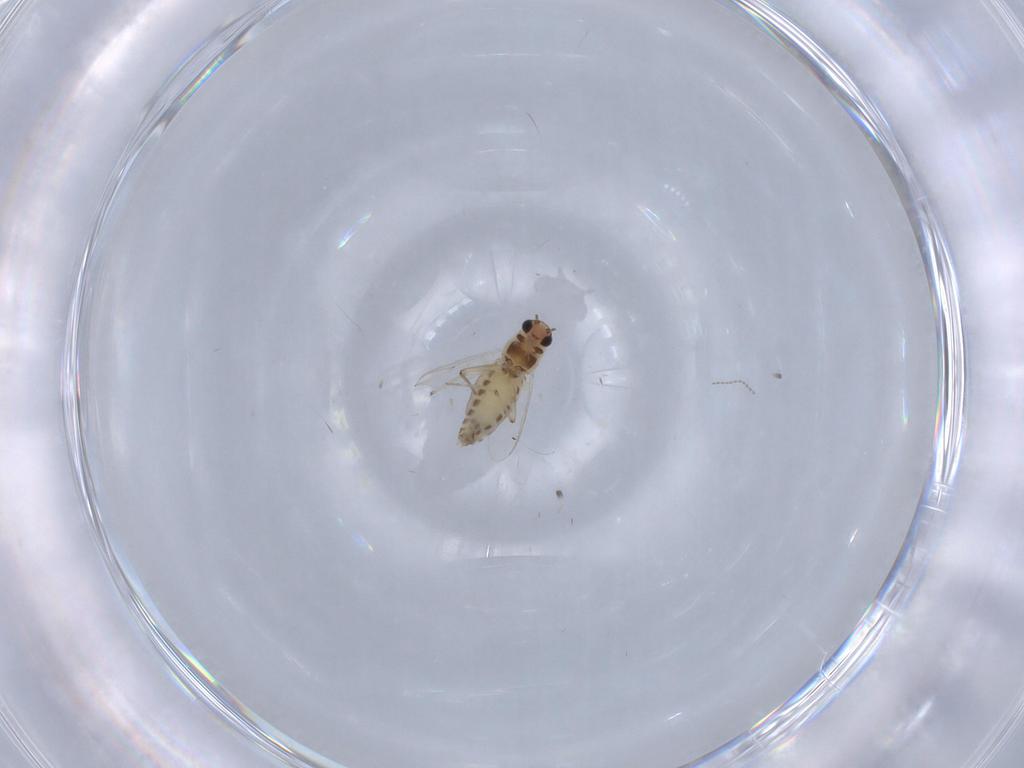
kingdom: Animalia
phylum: Arthropoda
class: Insecta
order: Diptera
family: Chironomidae
